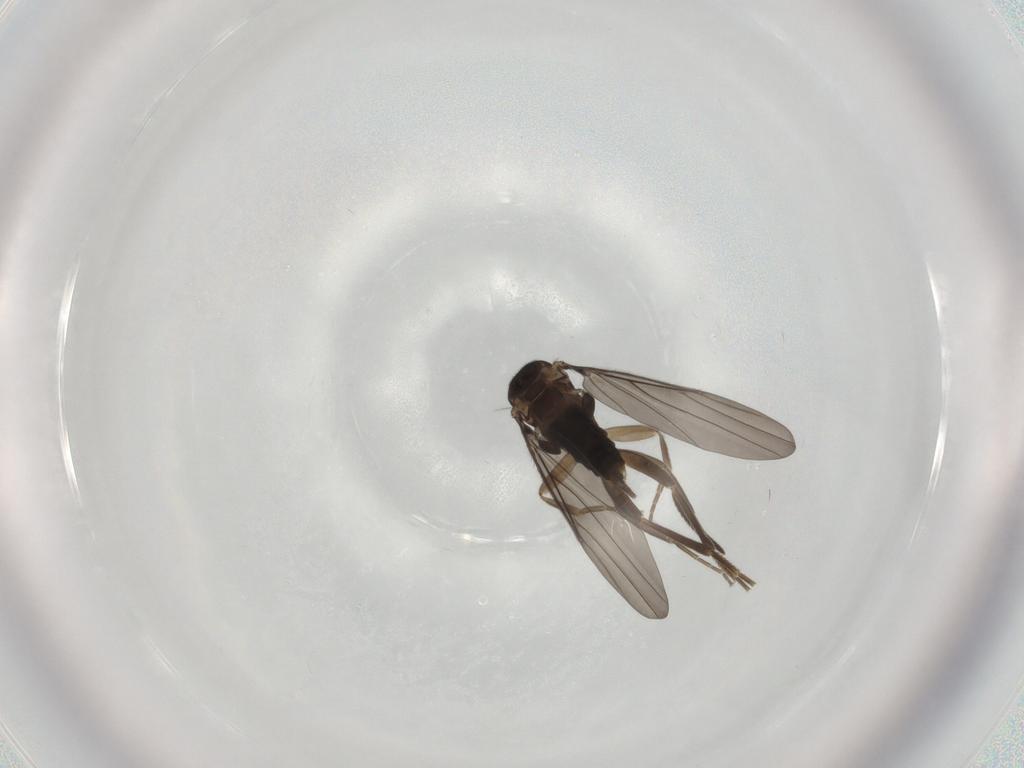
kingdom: Animalia
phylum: Arthropoda
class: Insecta
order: Diptera
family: Phoridae
